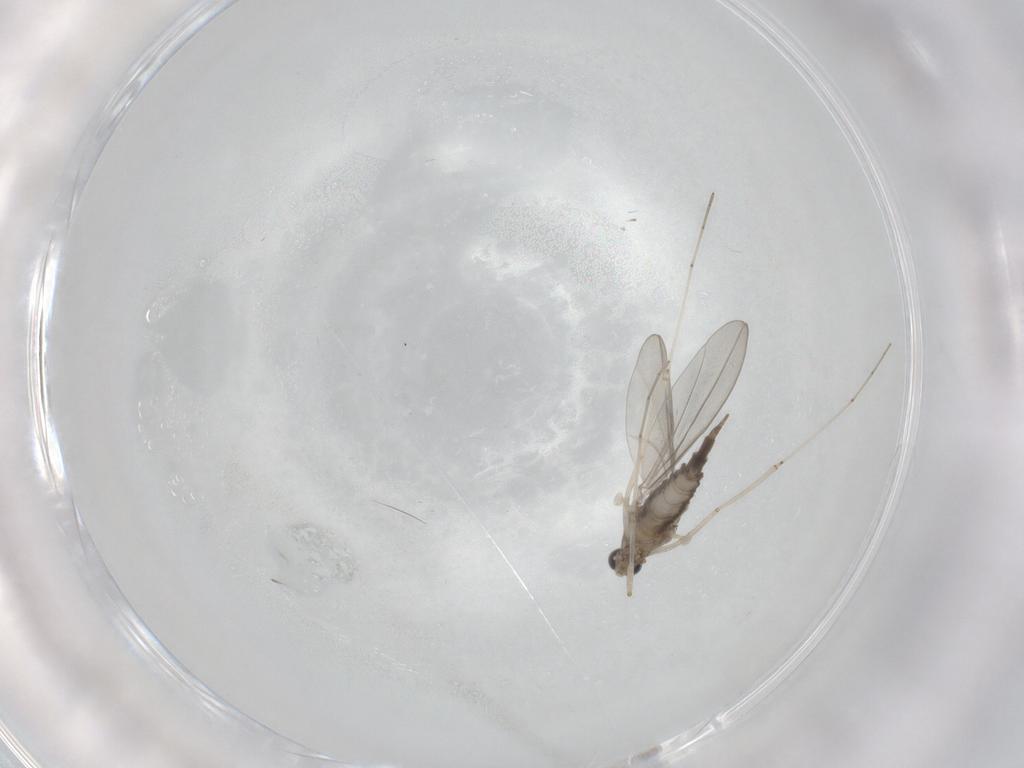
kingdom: Animalia
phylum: Arthropoda
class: Insecta
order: Diptera
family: Cecidomyiidae
